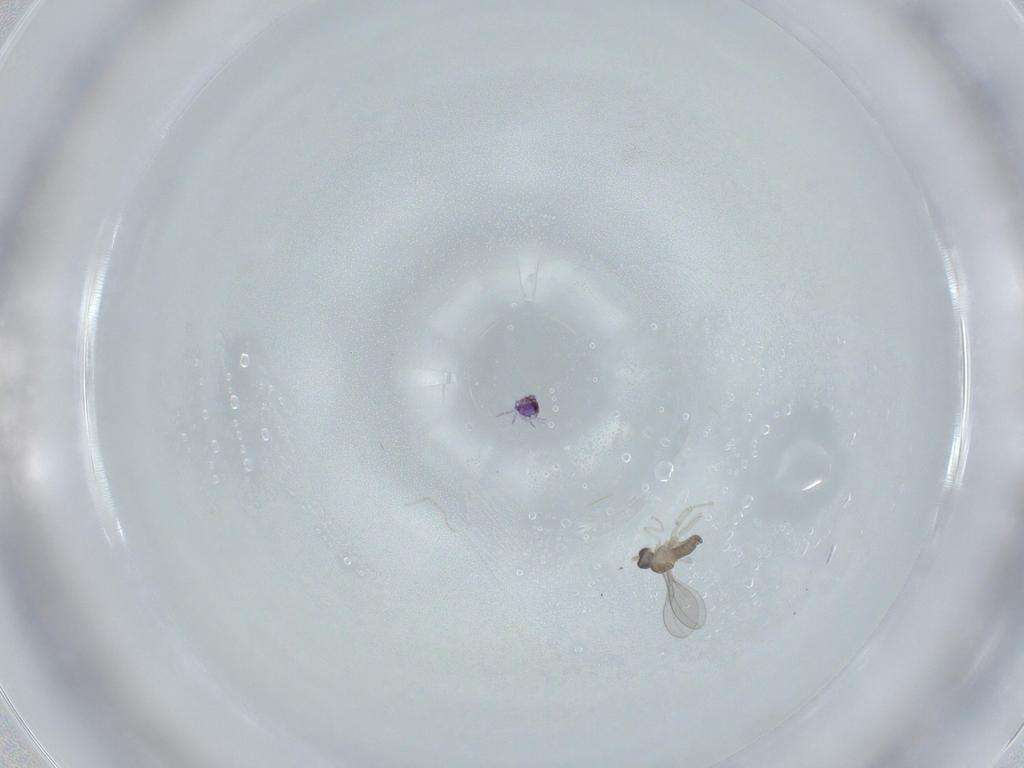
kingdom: Animalia
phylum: Arthropoda
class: Insecta
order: Diptera
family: Cecidomyiidae
